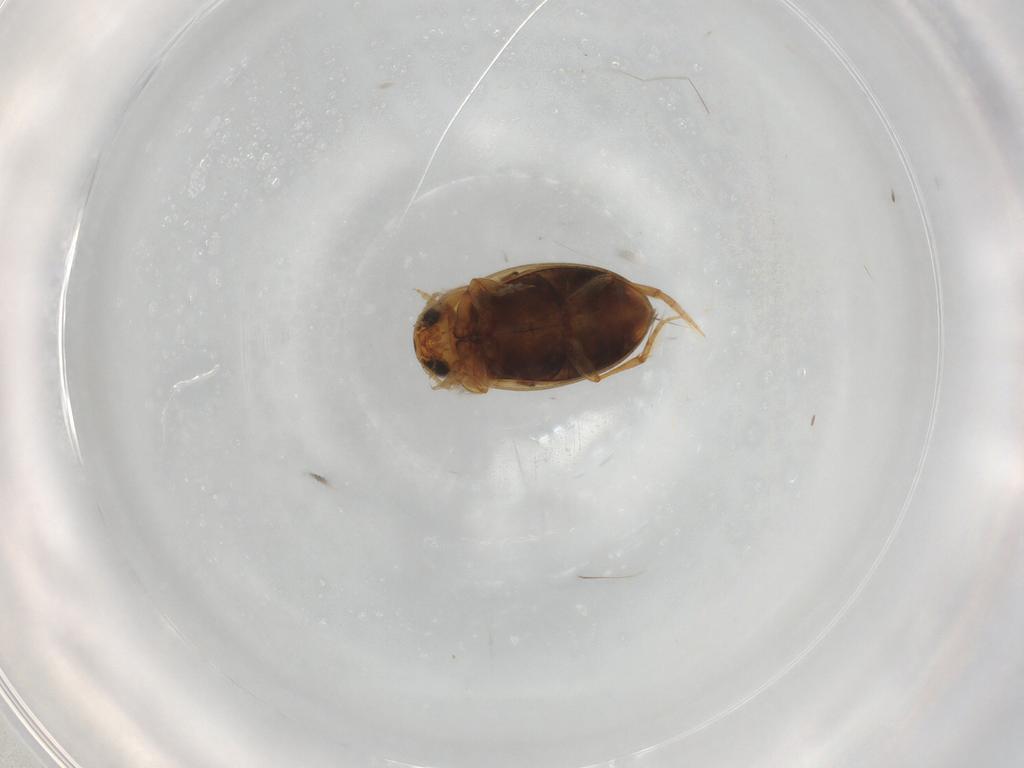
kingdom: Animalia
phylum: Arthropoda
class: Insecta
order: Coleoptera
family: Dytiscidae
